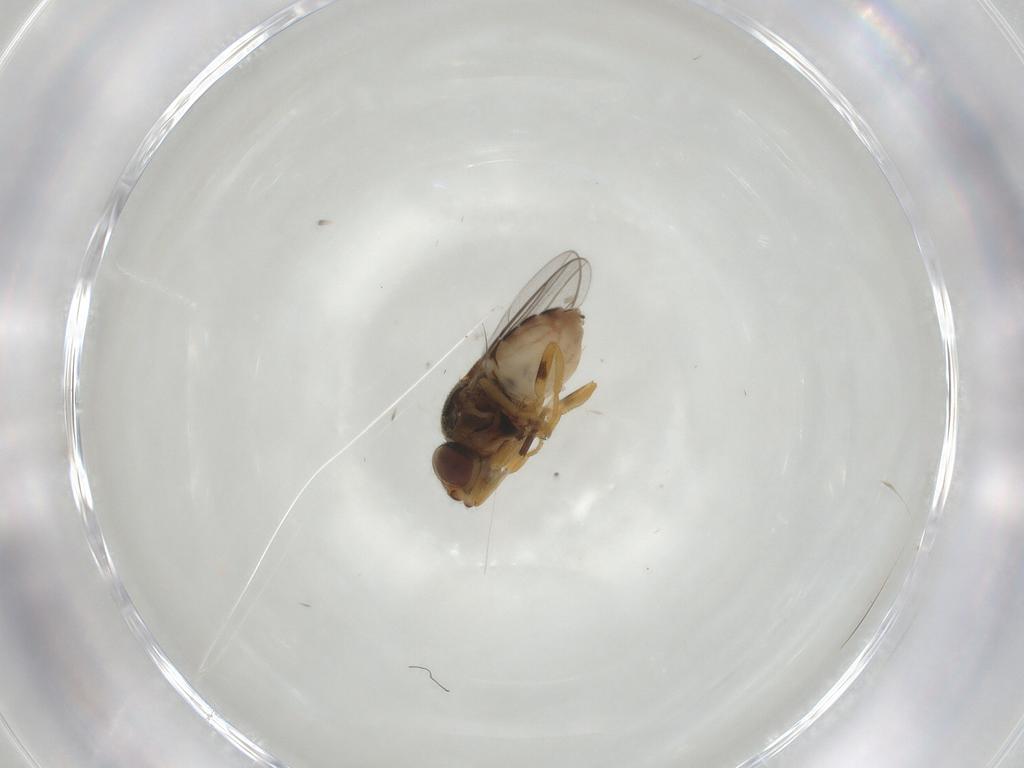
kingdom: Animalia
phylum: Arthropoda
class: Insecta
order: Diptera
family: Chloropidae
